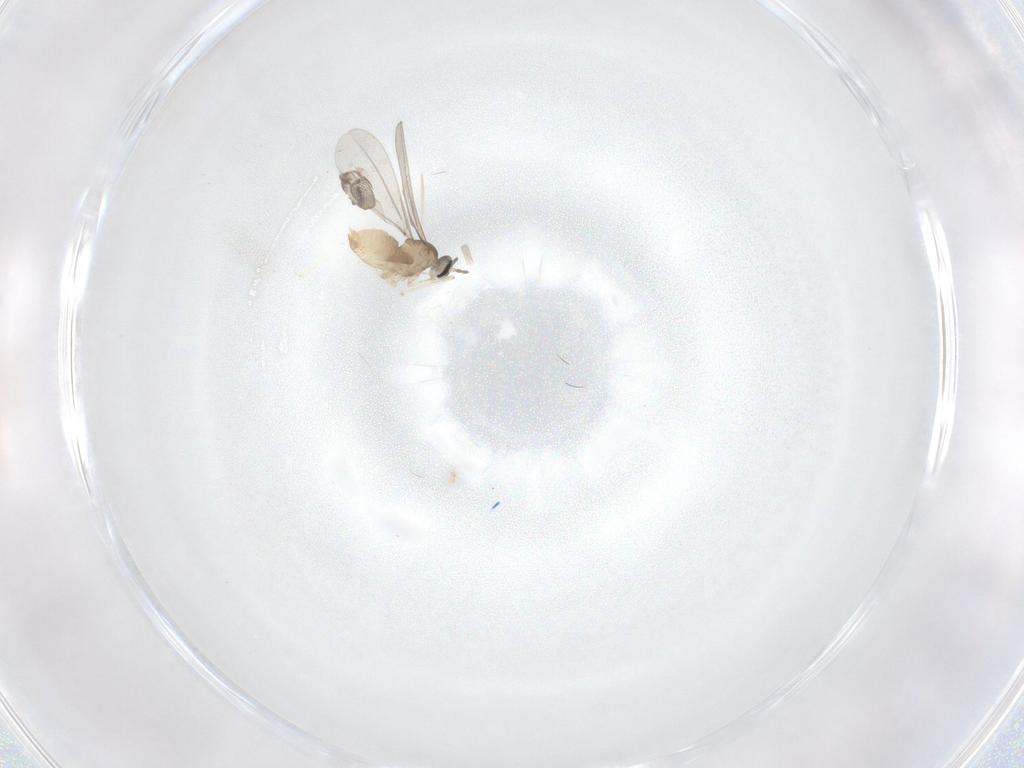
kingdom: Animalia
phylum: Arthropoda
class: Insecta
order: Diptera
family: Cecidomyiidae
